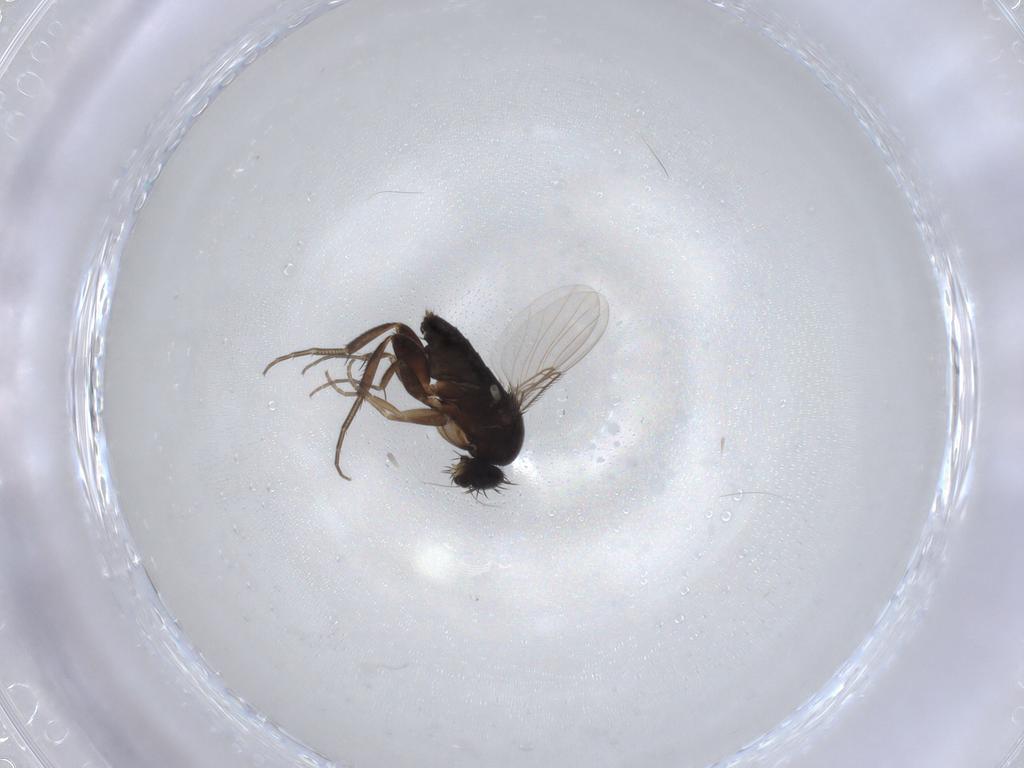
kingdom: Animalia
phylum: Arthropoda
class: Insecta
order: Diptera
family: Phoridae
